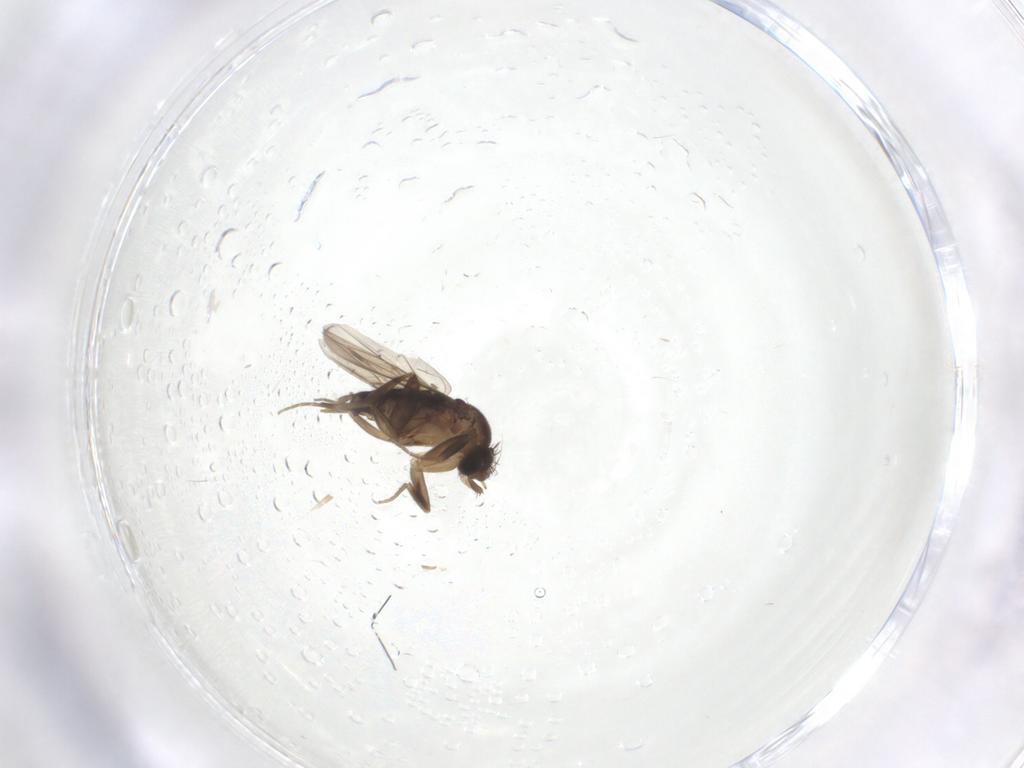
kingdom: Animalia
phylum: Arthropoda
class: Insecta
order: Diptera
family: Phoridae
